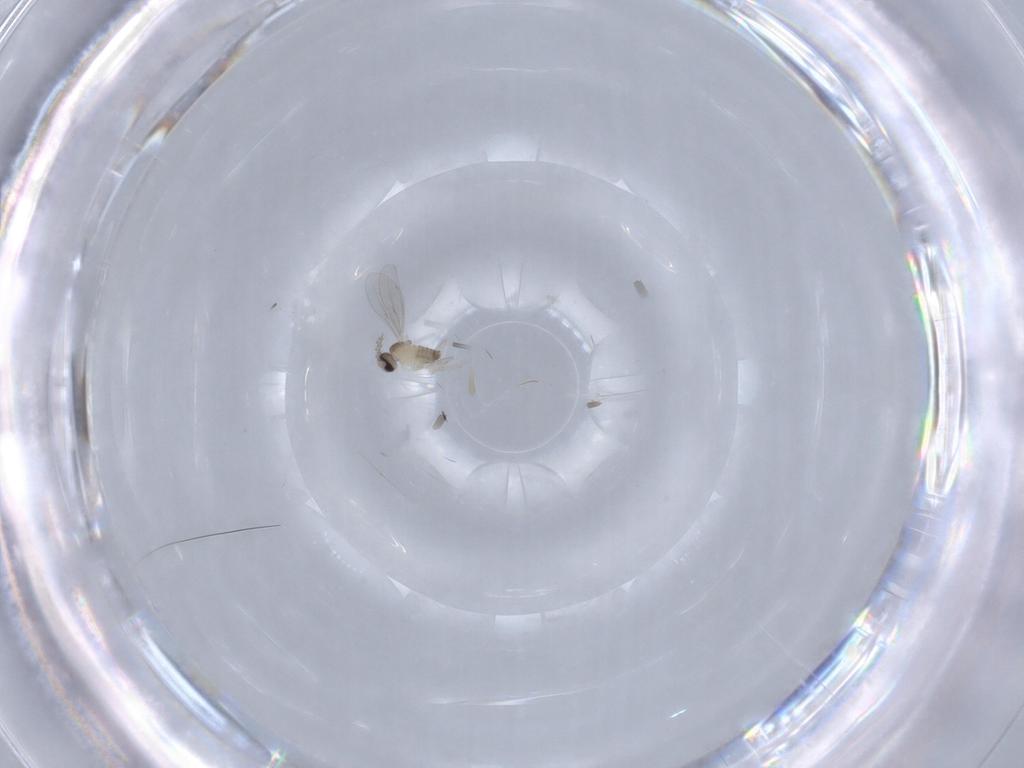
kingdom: Animalia
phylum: Arthropoda
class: Insecta
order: Diptera
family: Cecidomyiidae
